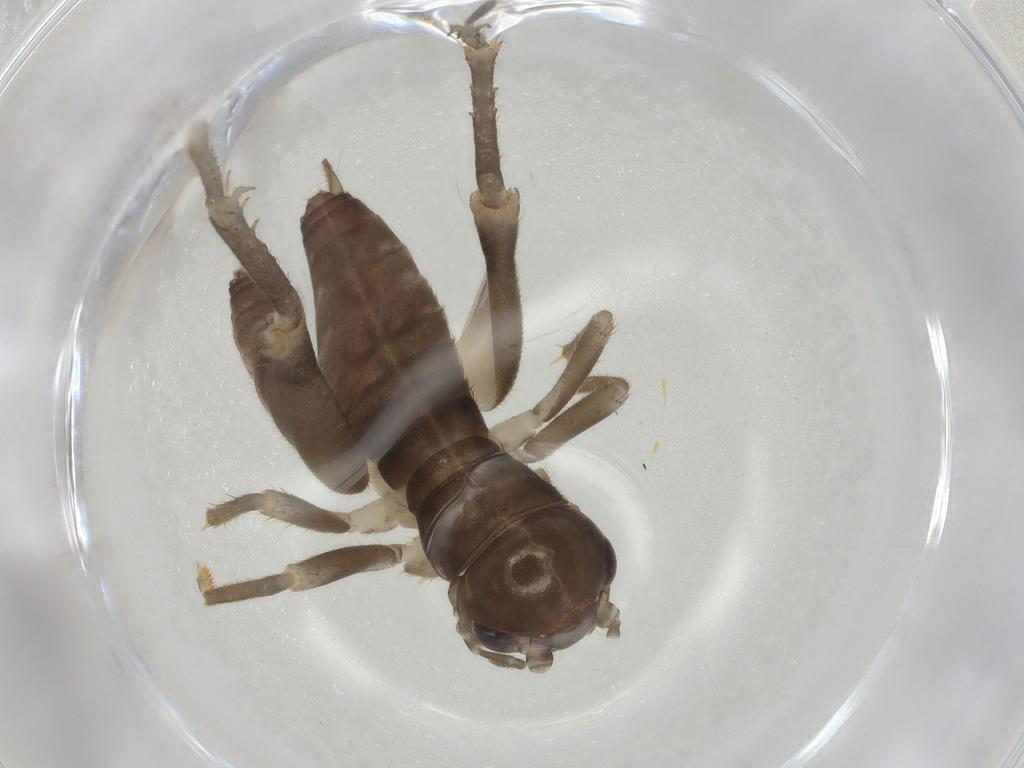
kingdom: Animalia
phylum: Arthropoda
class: Insecta
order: Orthoptera
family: Gryllidae
